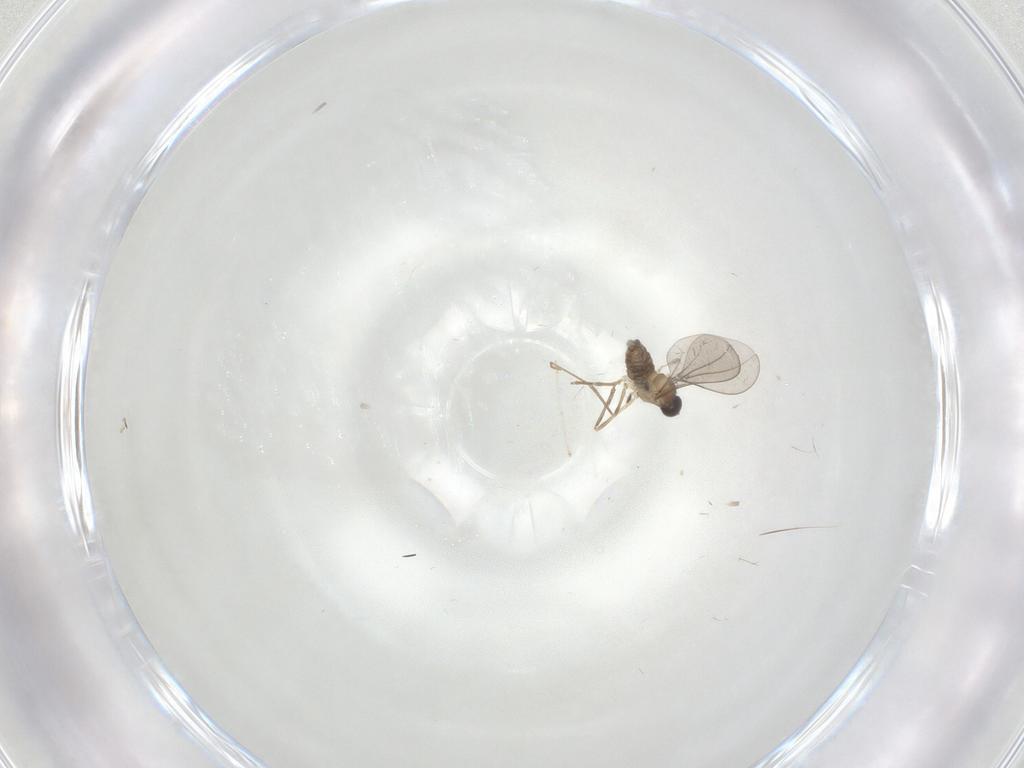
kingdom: Animalia
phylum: Arthropoda
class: Insecta
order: Diptera
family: Cecidomyiidae
